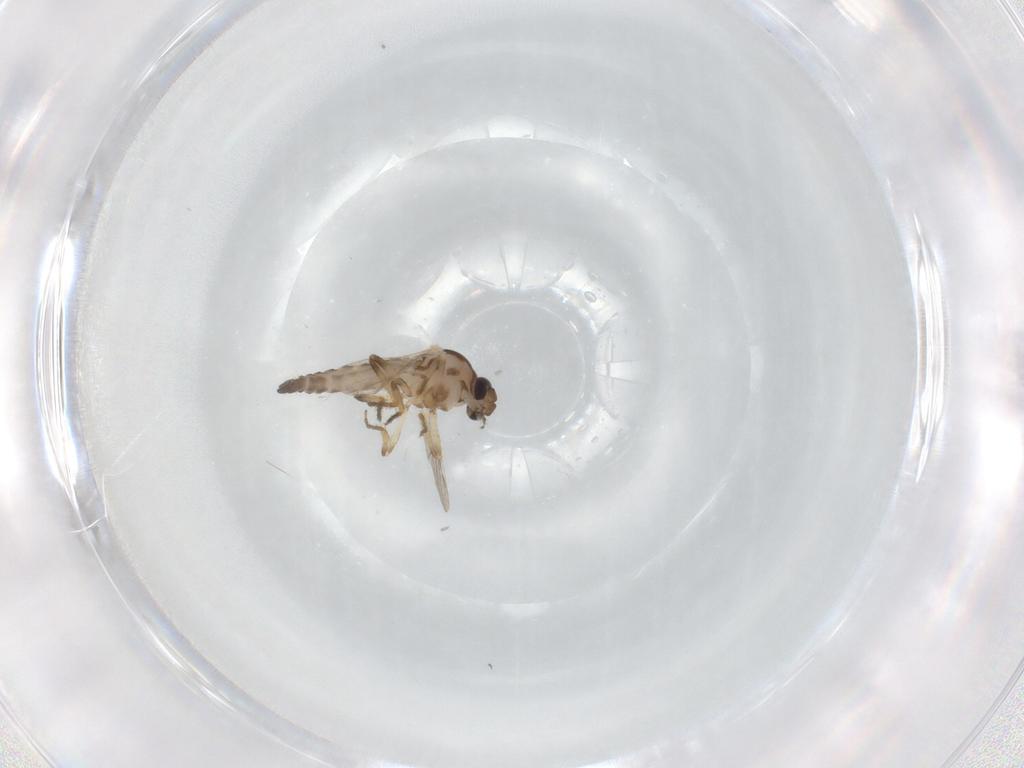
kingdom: Animalia
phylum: Arthropoda
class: Insecta
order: Diptera
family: Ceratopogonidae
